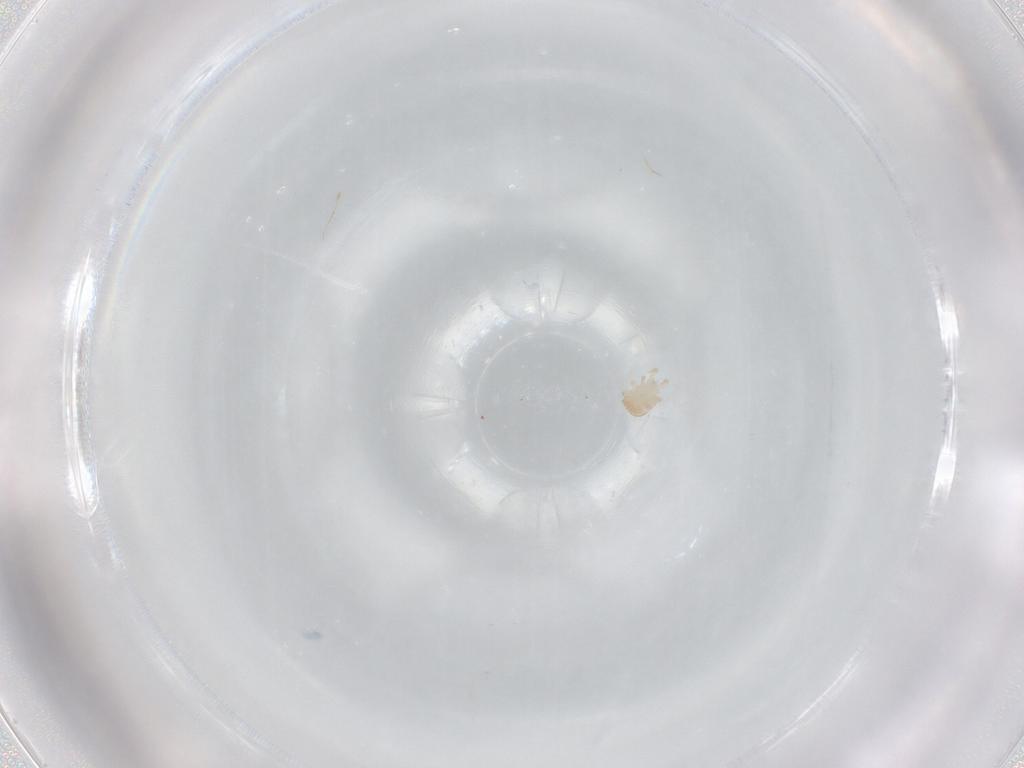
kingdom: Animalia
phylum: Arthropoda
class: Arachnida
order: Mesostigmata
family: Zerconidae
